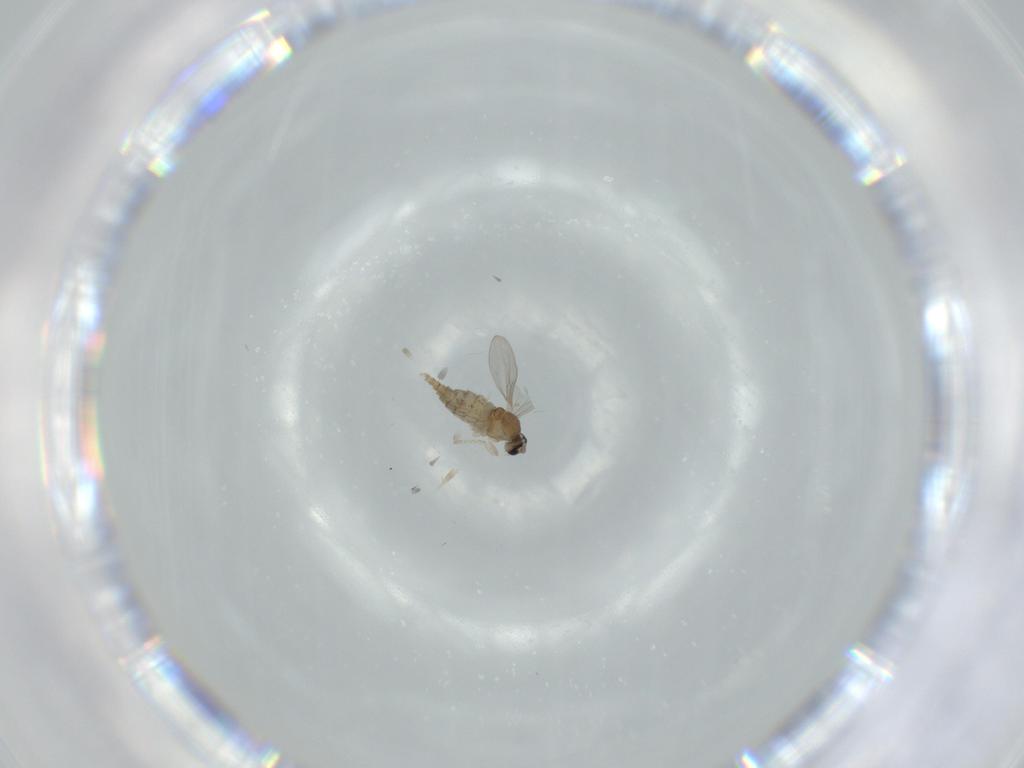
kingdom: Animalia
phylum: Arthropoda
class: Insecta
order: Diptera
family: Cecidomyiidae
